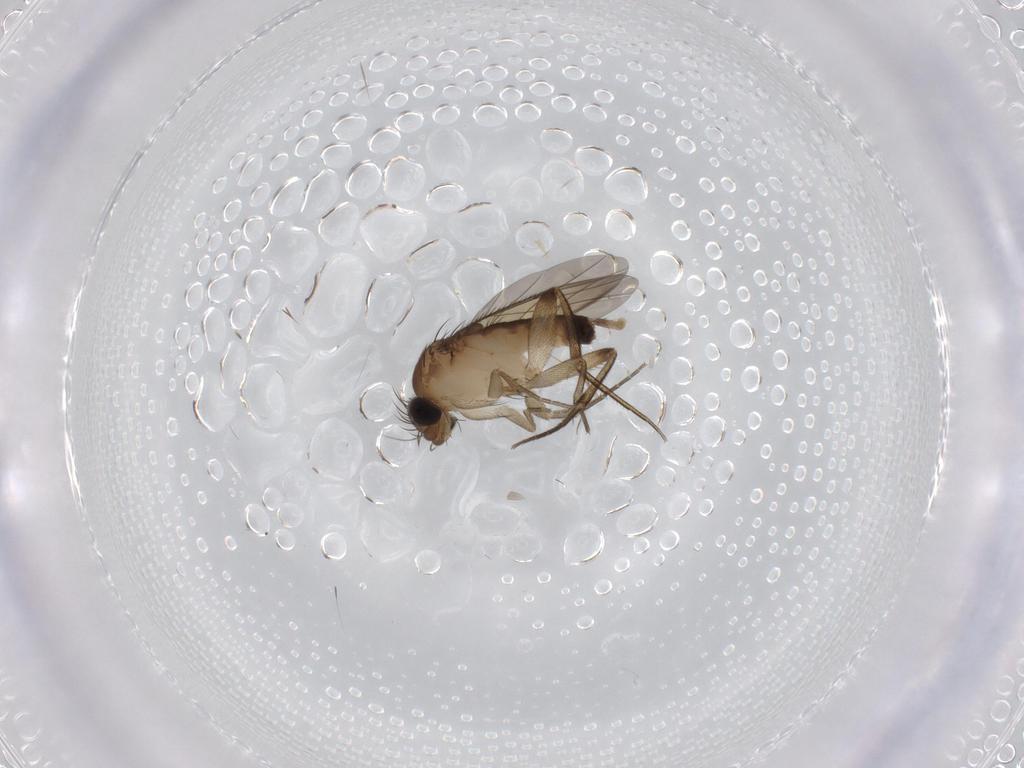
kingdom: Animalia
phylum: Arthropoda
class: Insecta
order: Diptera
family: Phoridae
